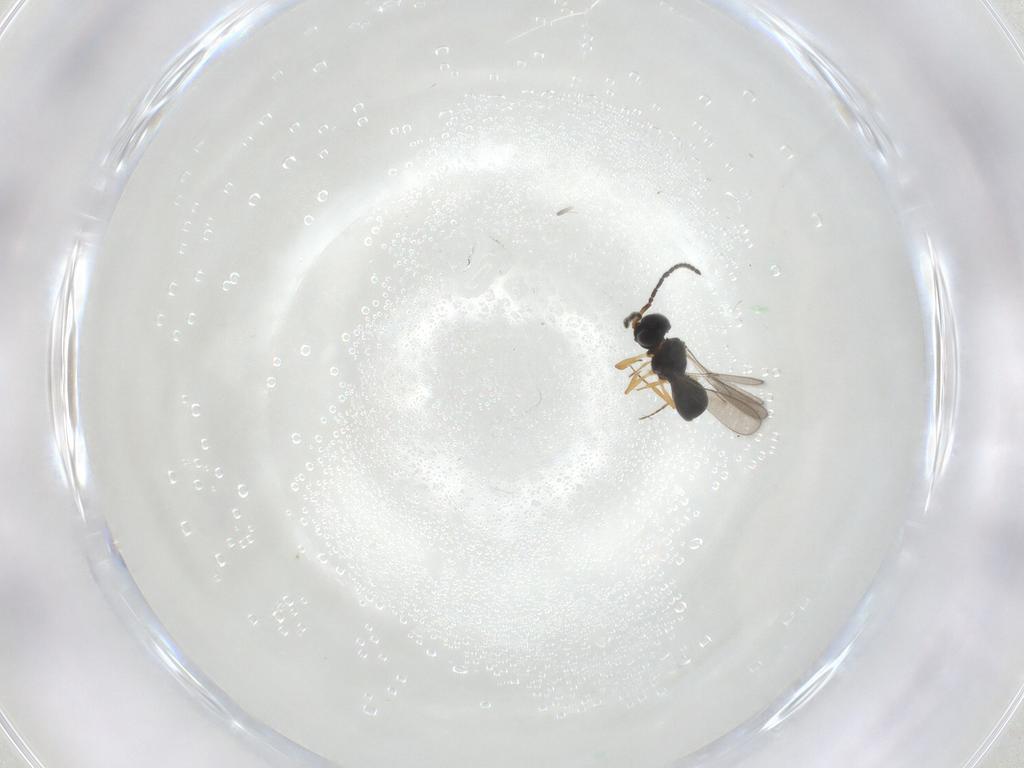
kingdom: Animalia
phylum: Arthropoda
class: Insecta
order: Hymenoptera
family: Scelionidae
